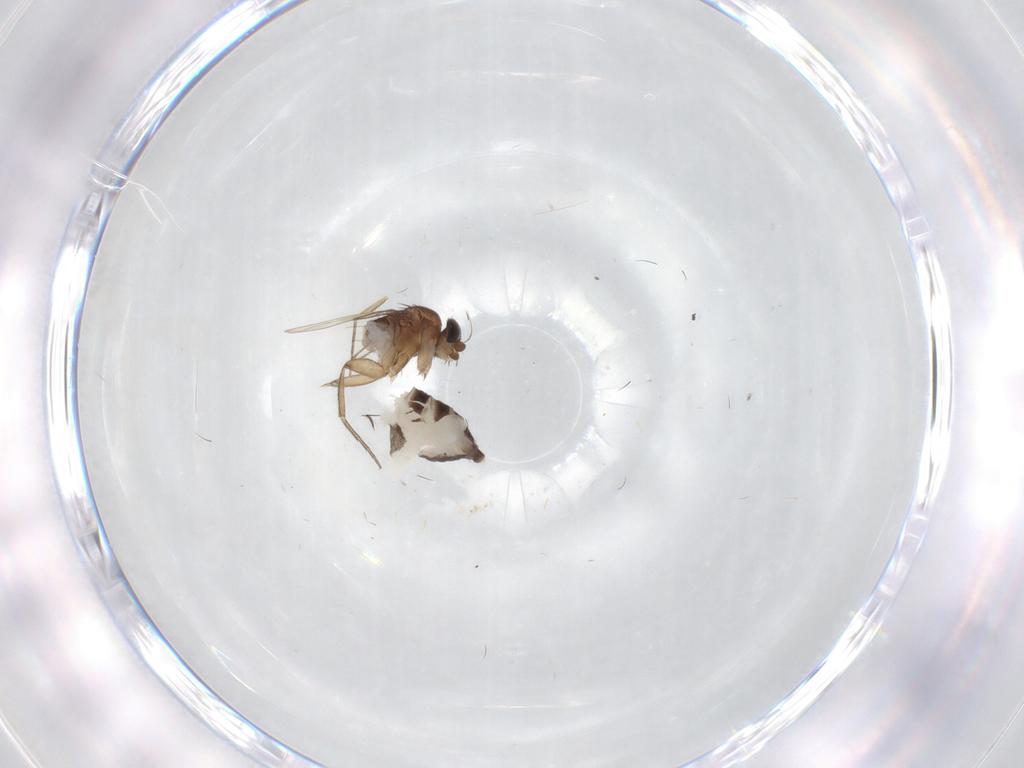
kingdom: Animalia
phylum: Arthropoda
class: Insecta
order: Diptera
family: Phoridae
